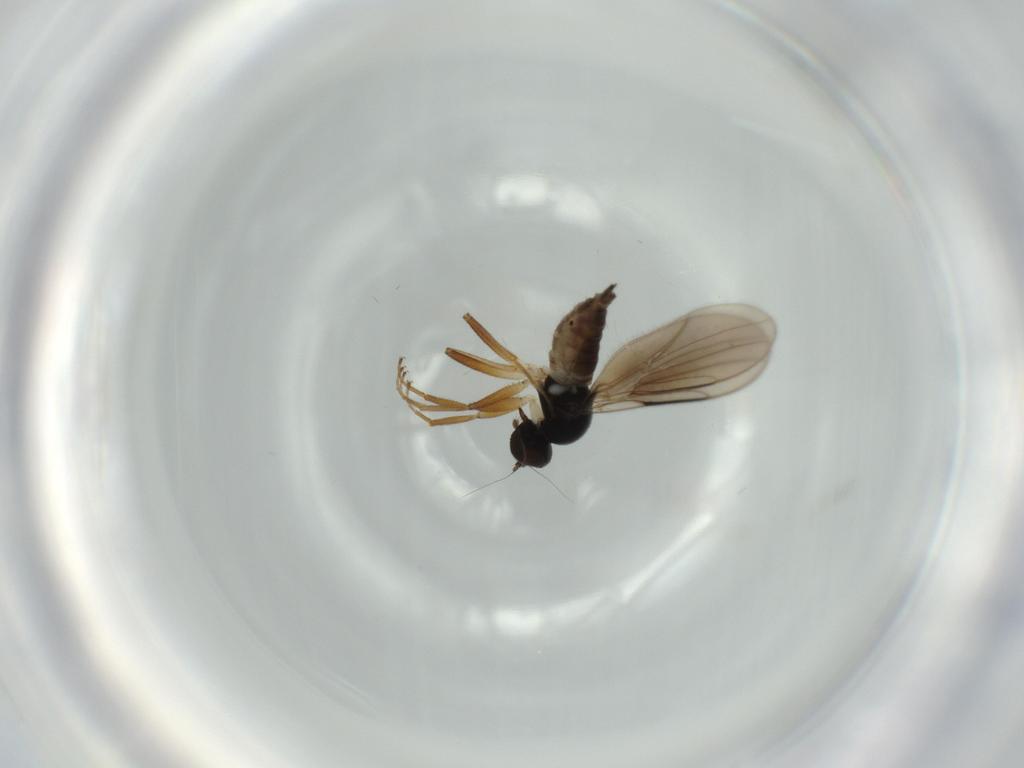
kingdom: Animalia
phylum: Arthropoda
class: Insecta
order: Diptera
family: Hybotidae
